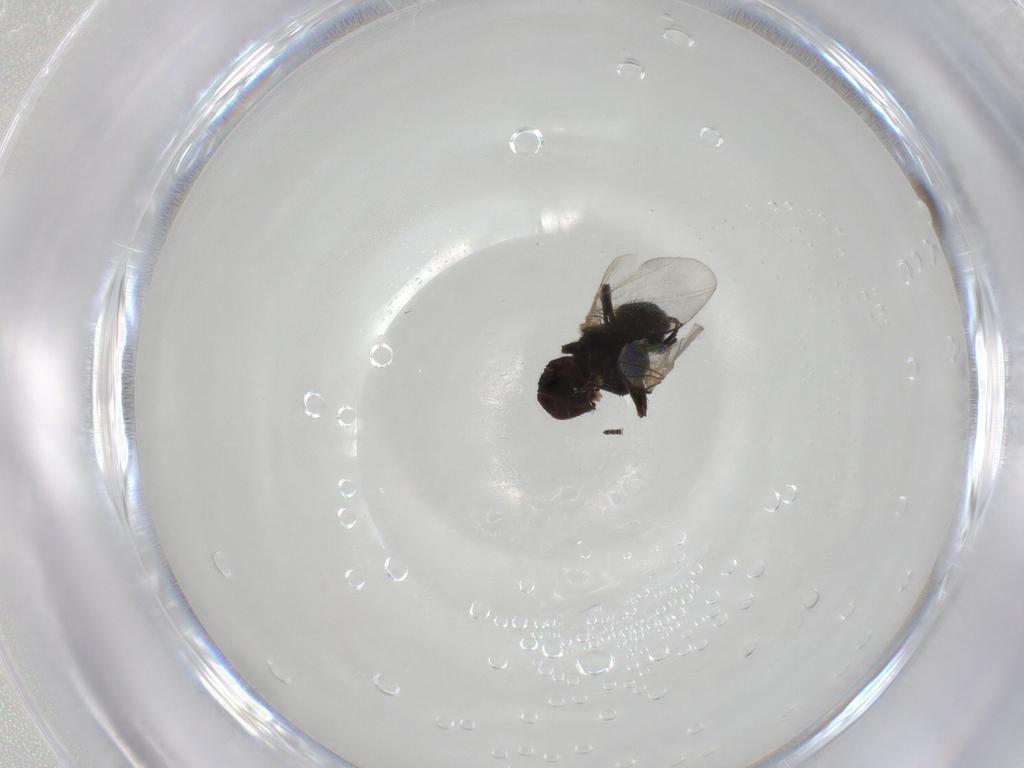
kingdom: Animalia
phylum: Arthropoda
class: Insecta
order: Diptera
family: Agromyzidae
